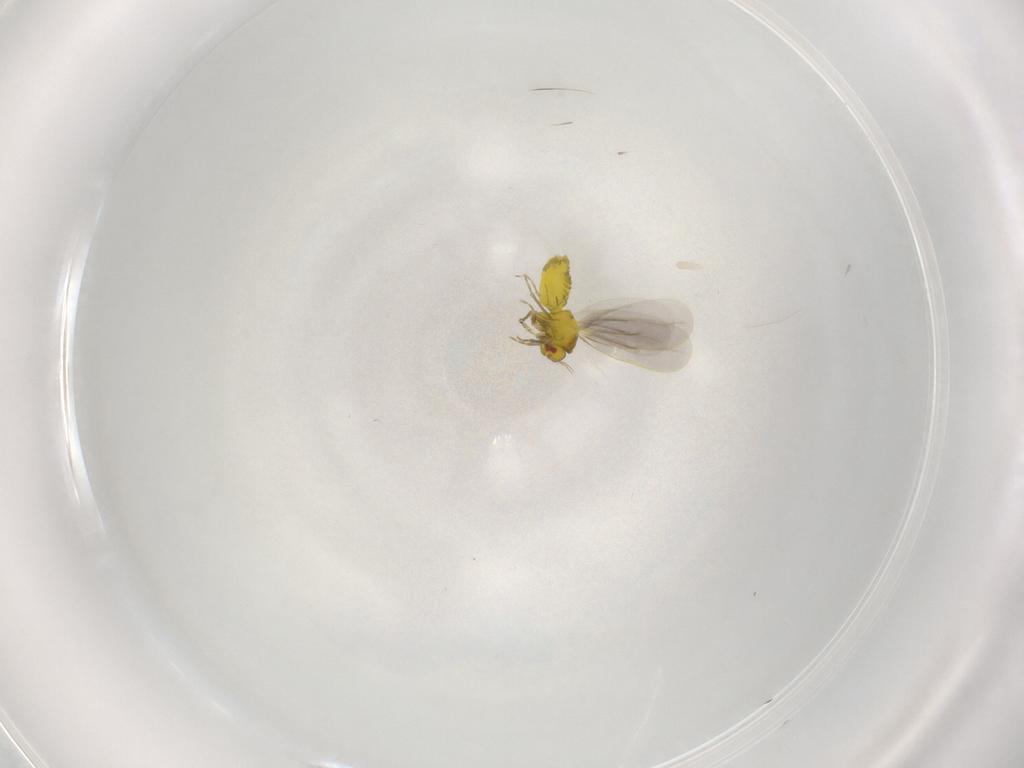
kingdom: Animalia
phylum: Arthropoda
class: Insecta
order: Hemiptera
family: Aleyrodidae
